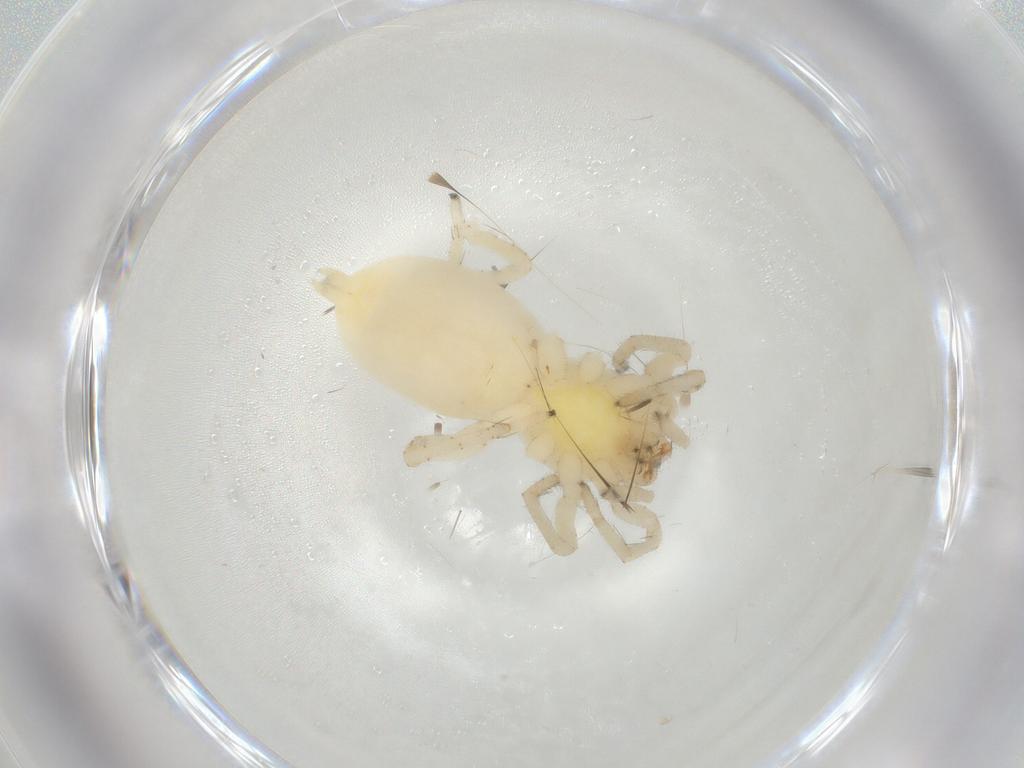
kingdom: Animalia
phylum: Arthropoda
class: Arachnida
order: Araneae
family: Clubionidae
